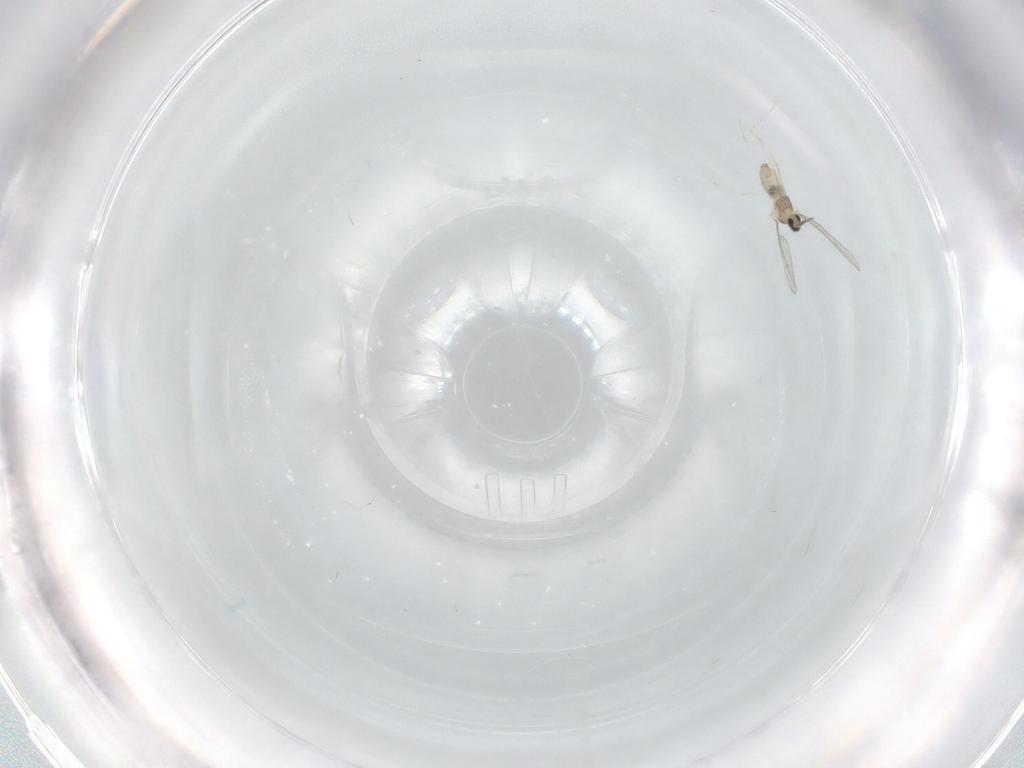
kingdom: Animalia
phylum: Arthropoda
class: Insecta
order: Diptera
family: Cecidomyiidae
